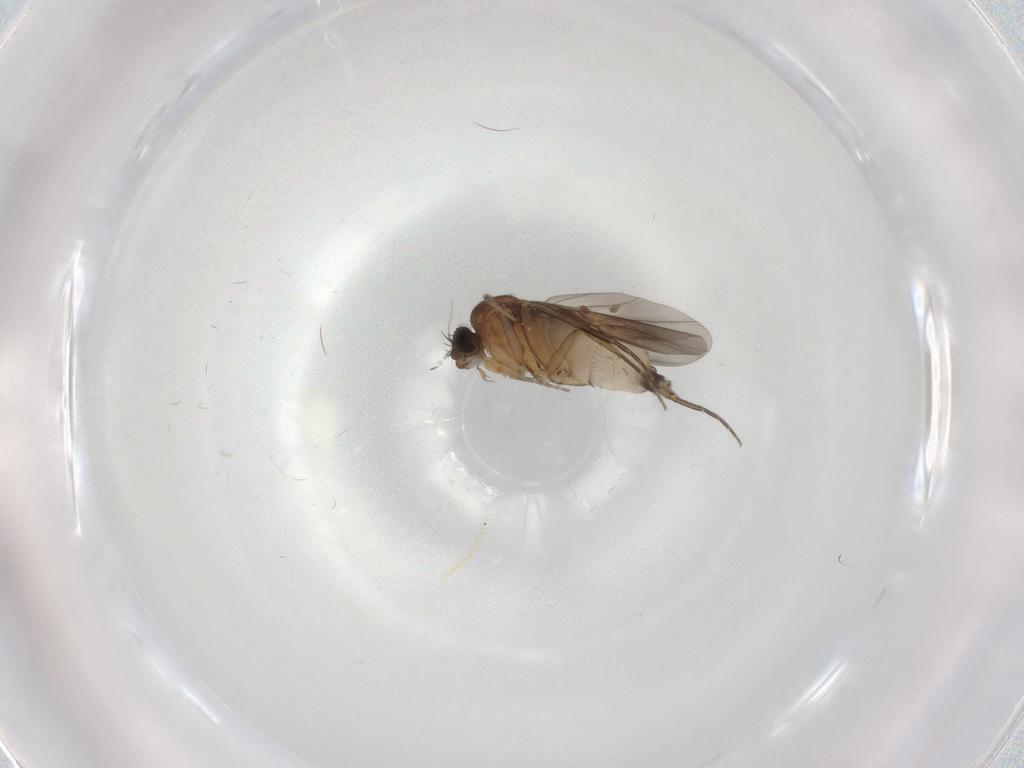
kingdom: Animalia
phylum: Arthropoda
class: Insecta
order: Diptera
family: Phoridae
